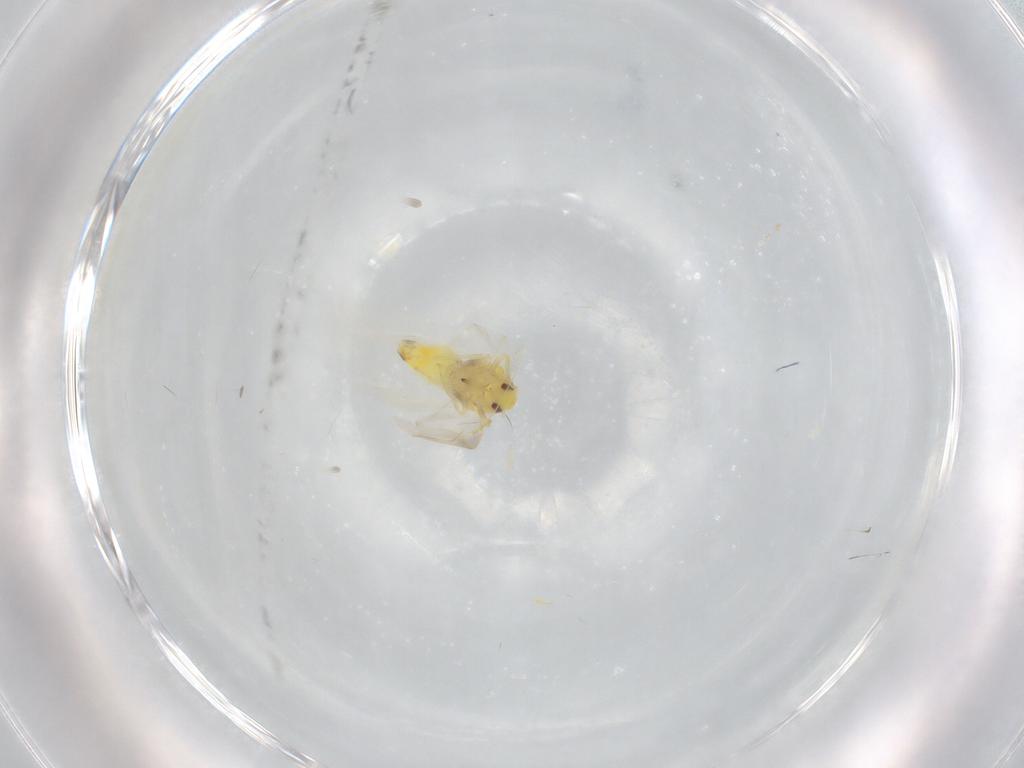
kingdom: Animalia
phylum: Arthropoda
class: Insecta
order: Hemiptera
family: Aleyrodidae
